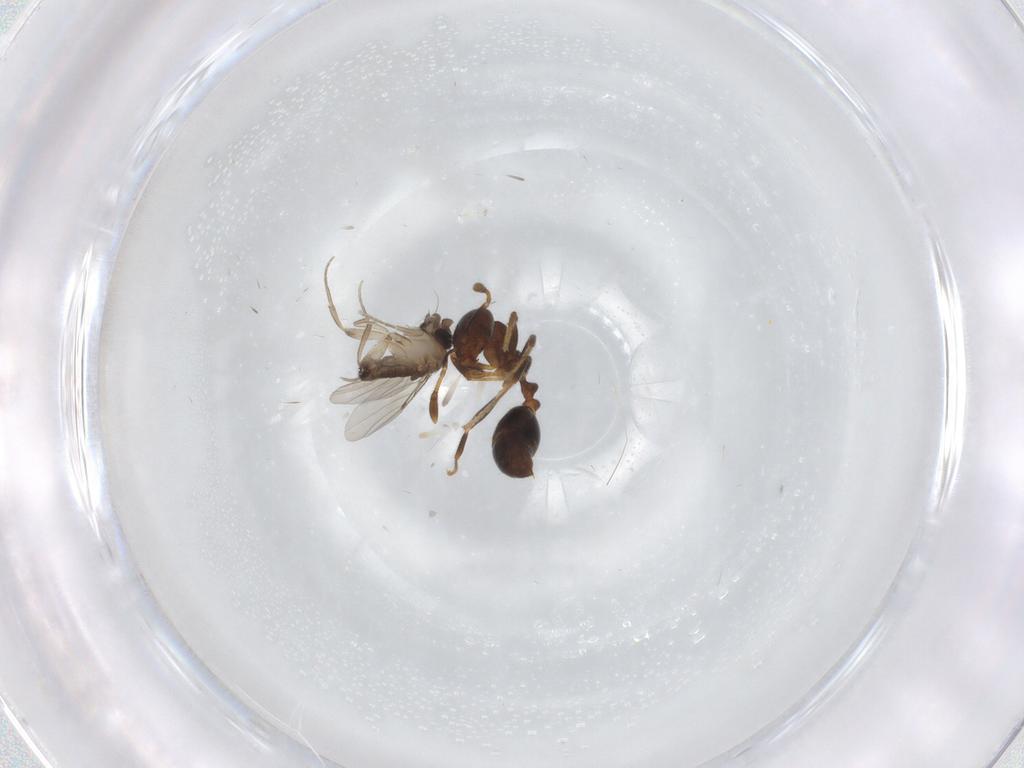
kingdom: Animalia
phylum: Arthropoda
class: Insecta
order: Diptera
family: Phoridae
